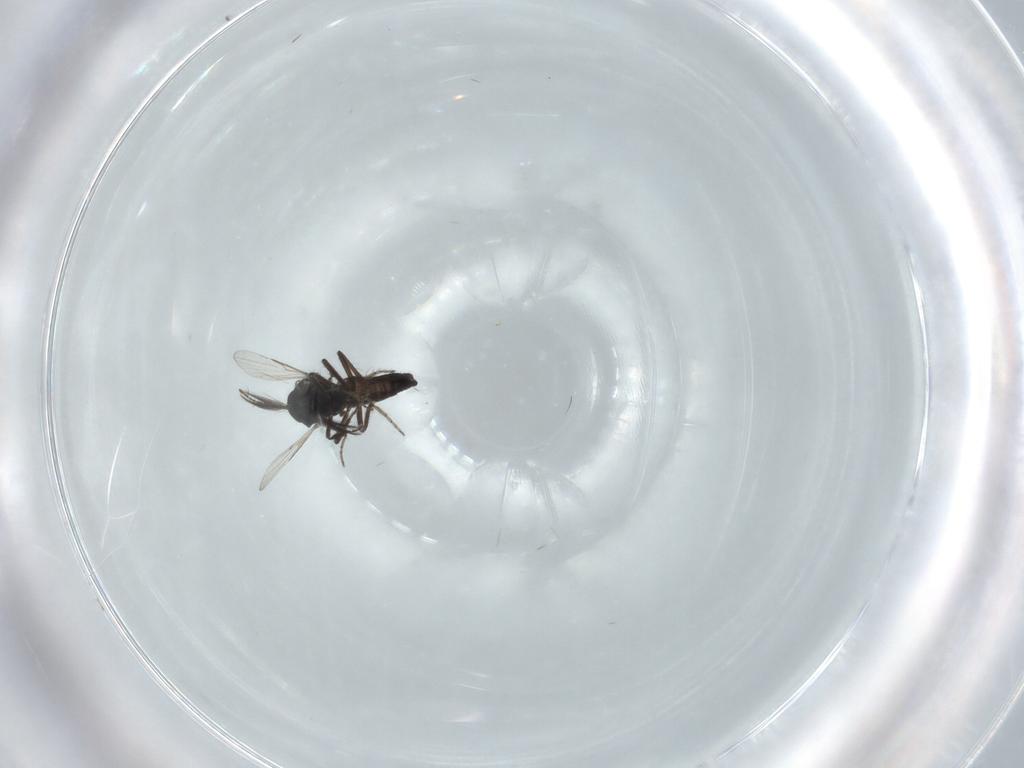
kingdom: Animalia
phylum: Arthropoda
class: Insecta
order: Diptera
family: Ceratopogonidae
